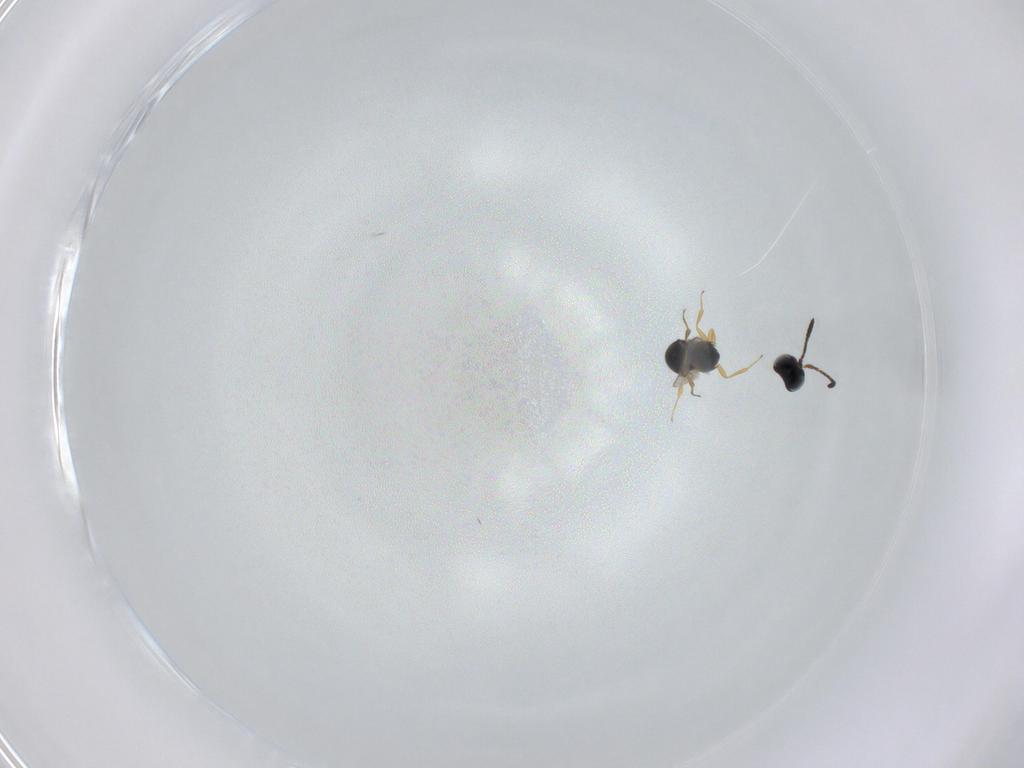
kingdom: Animalia
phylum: Arthropoda
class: Insecta
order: Hymenoptera
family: Scelionidae
